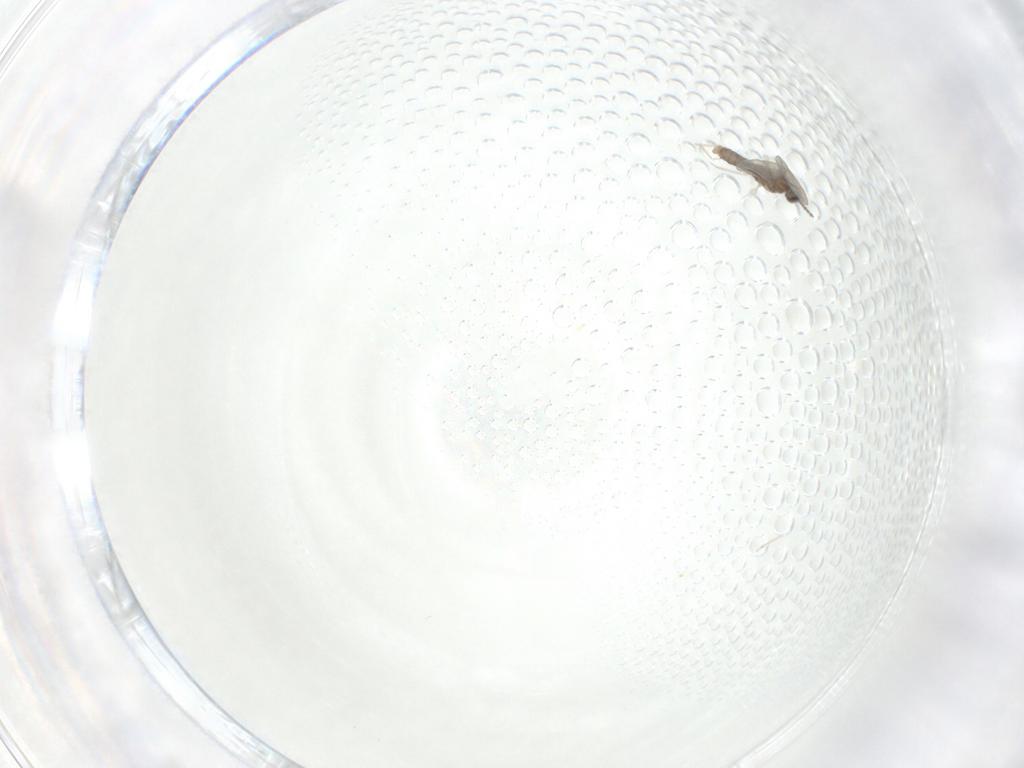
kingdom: Animalia
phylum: Arthropoda
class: Insecta
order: Diptera
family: Cecidomyiidae
